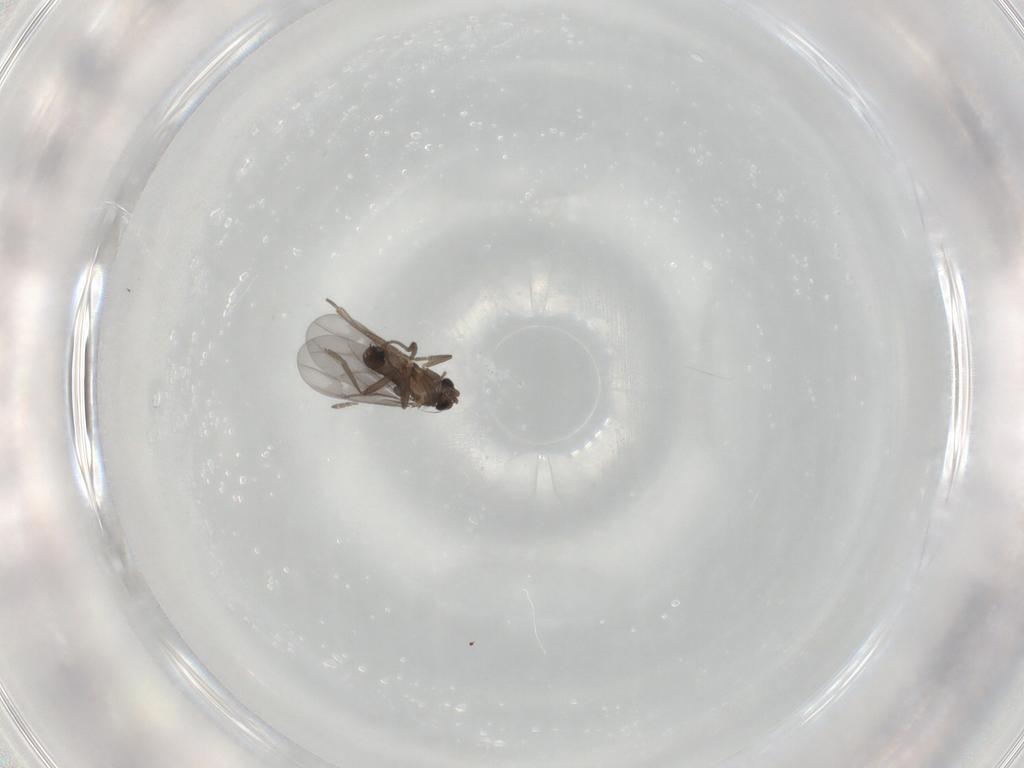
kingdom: Animalia
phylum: Arthropoda
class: Insecta
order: Diptera
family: Phoridae
